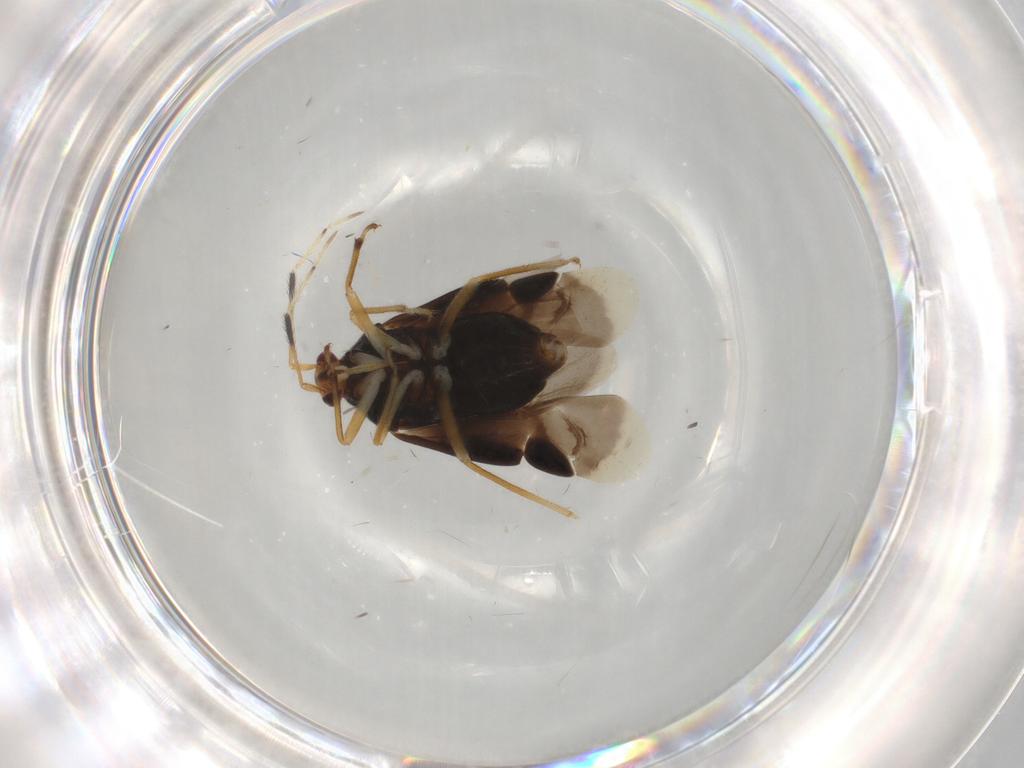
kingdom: Animalia
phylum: Arthropoda
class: Insecta
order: Hemiptera
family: Miridae
